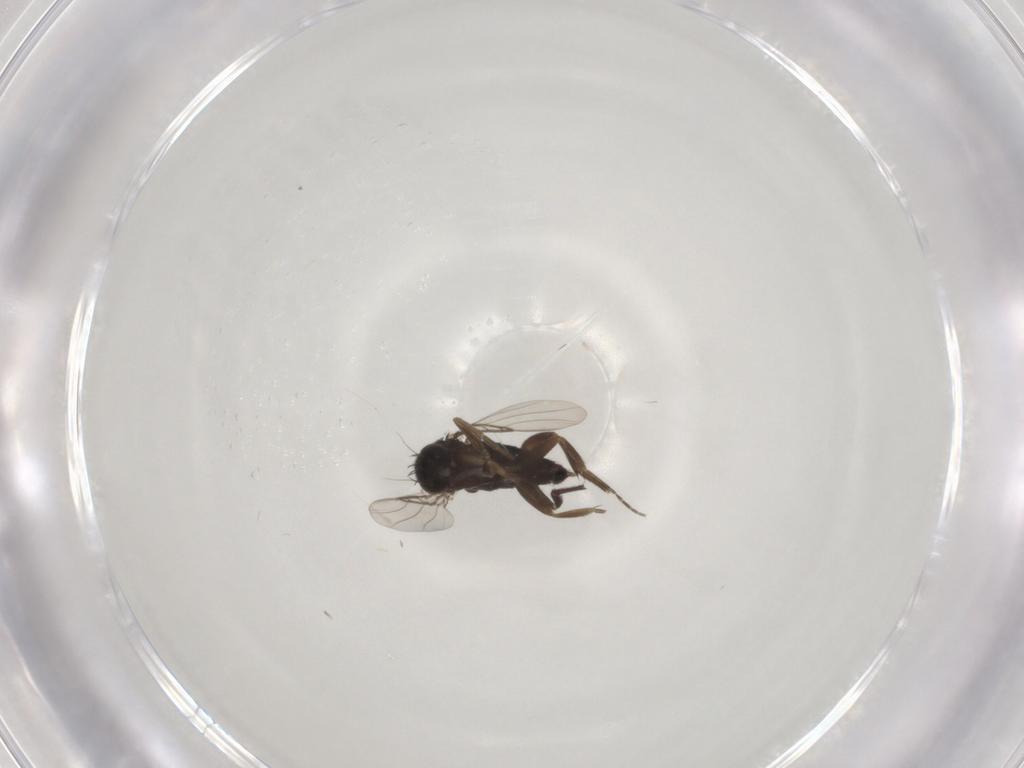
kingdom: Animalia
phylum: Arthropoda
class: Insecta
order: Diptera
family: Phoridae
